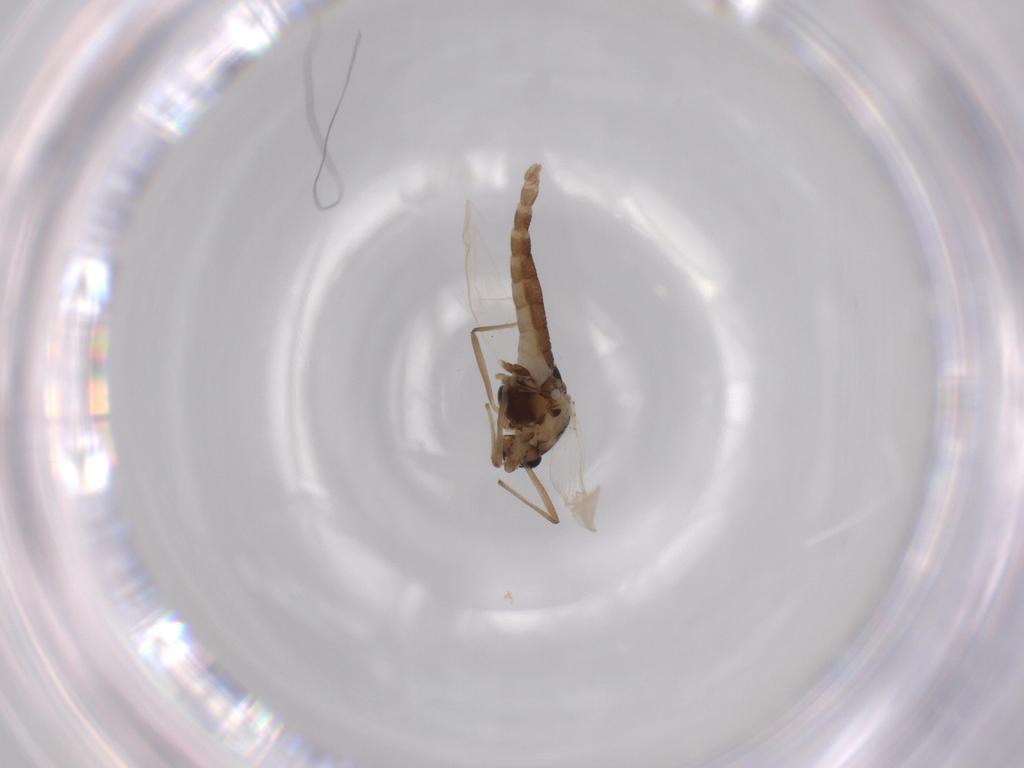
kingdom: Animalia
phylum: Arthropoda
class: Insecta
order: Diptera
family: Chironomidae
